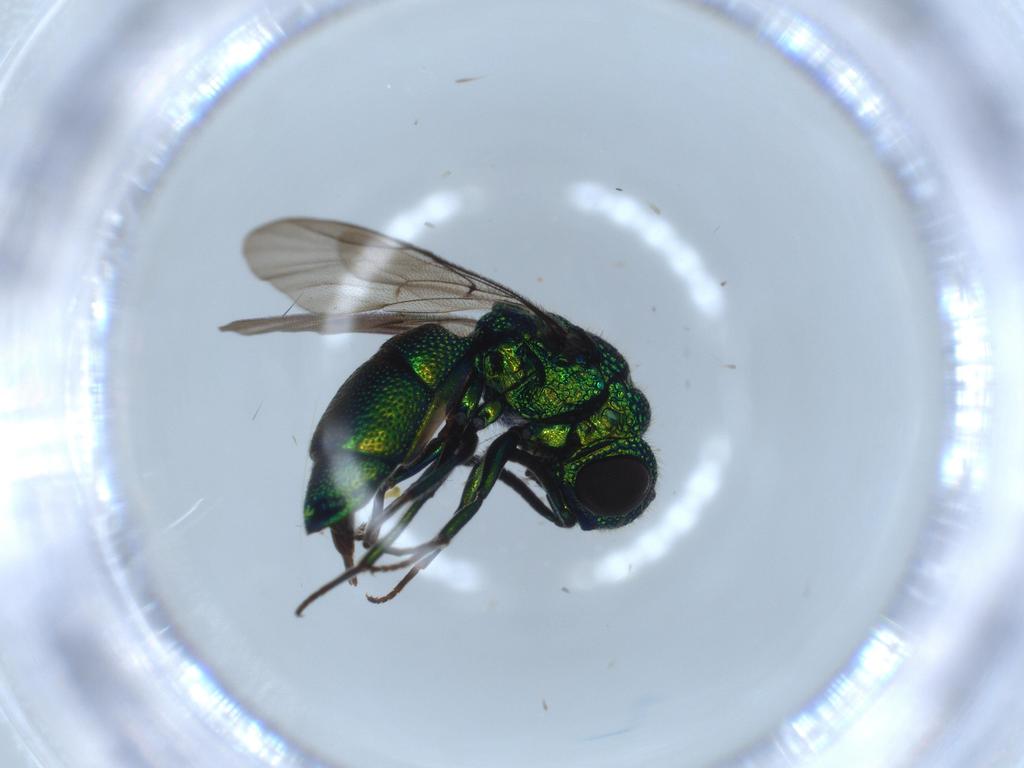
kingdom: Animalia
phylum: Arthropoda
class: Insecta
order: Hymenoptera
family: Chrysididae
